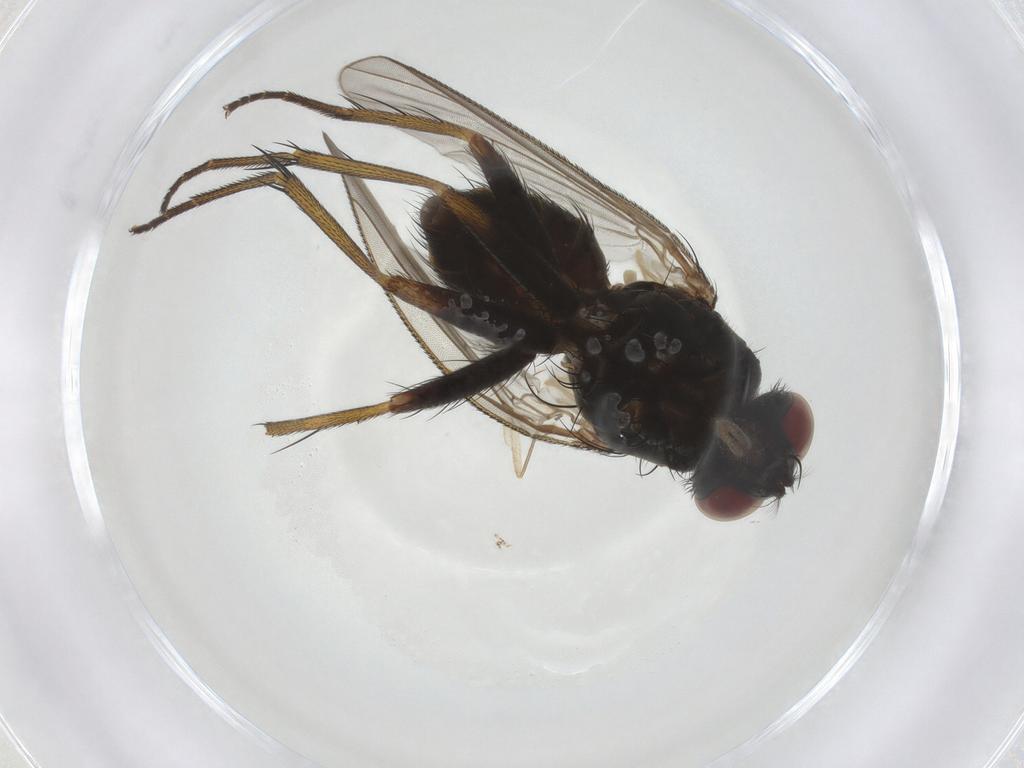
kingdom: Animalia
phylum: Arthropoda
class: Insecta
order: Diptera
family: Muscidae
